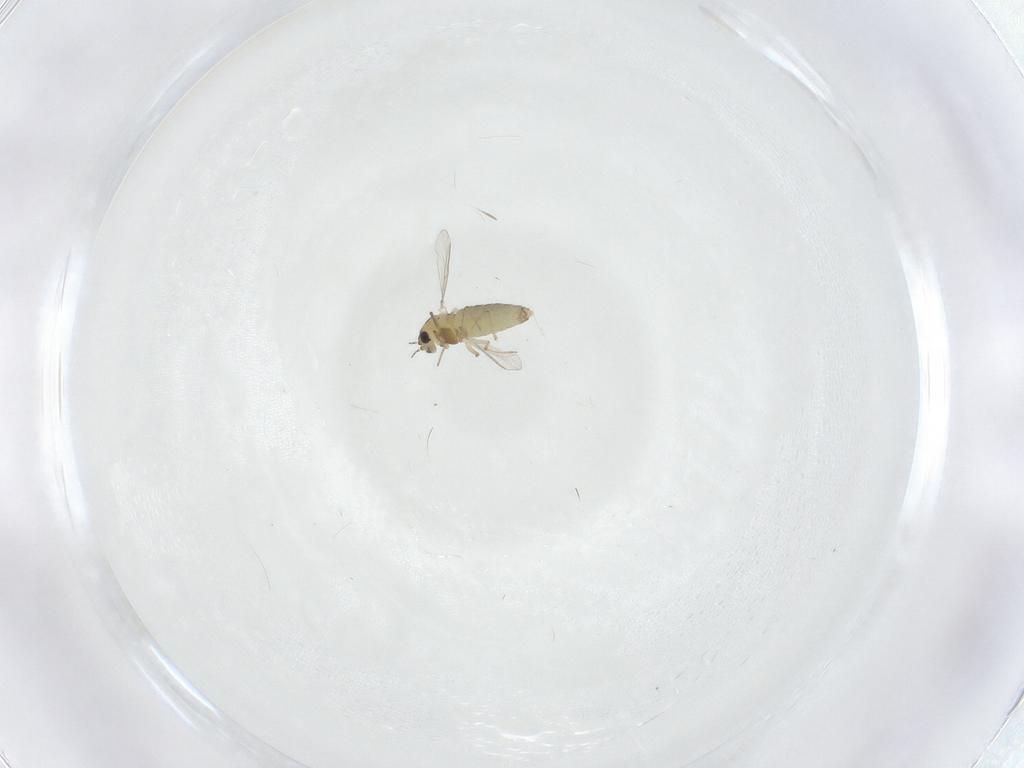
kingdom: Animalia
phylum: Arthropoda
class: Insecta
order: Diptera
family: Chironomidae
